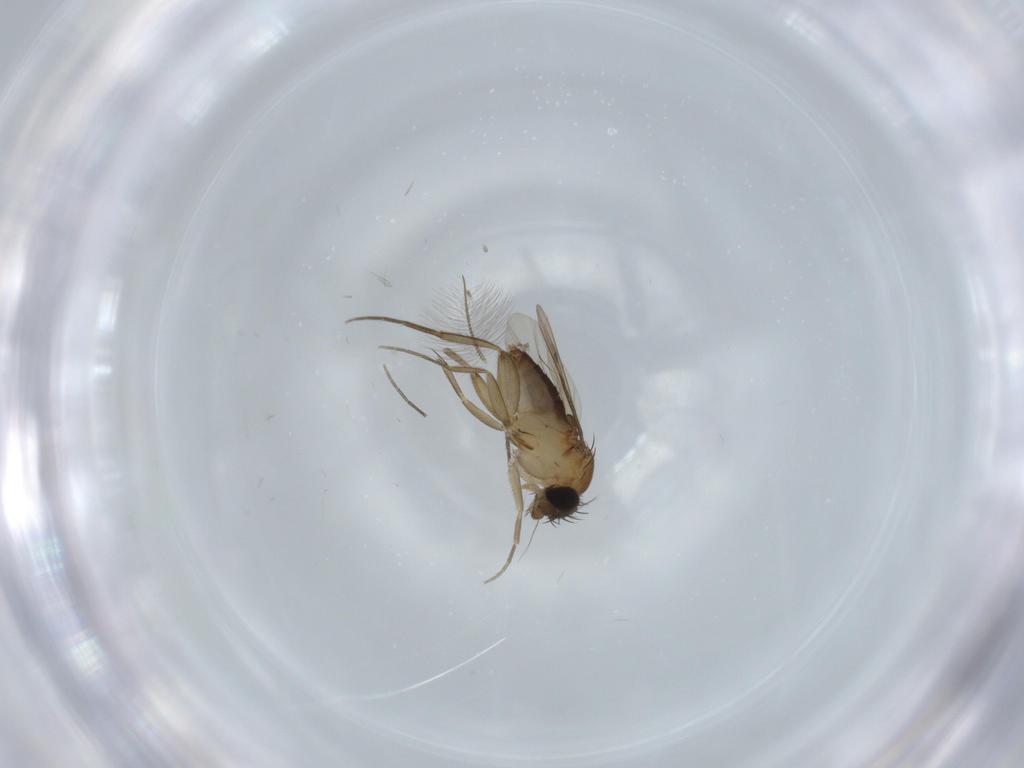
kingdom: Animalia
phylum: Arthropoda
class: Insecta
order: Diptera
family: Phoridae
